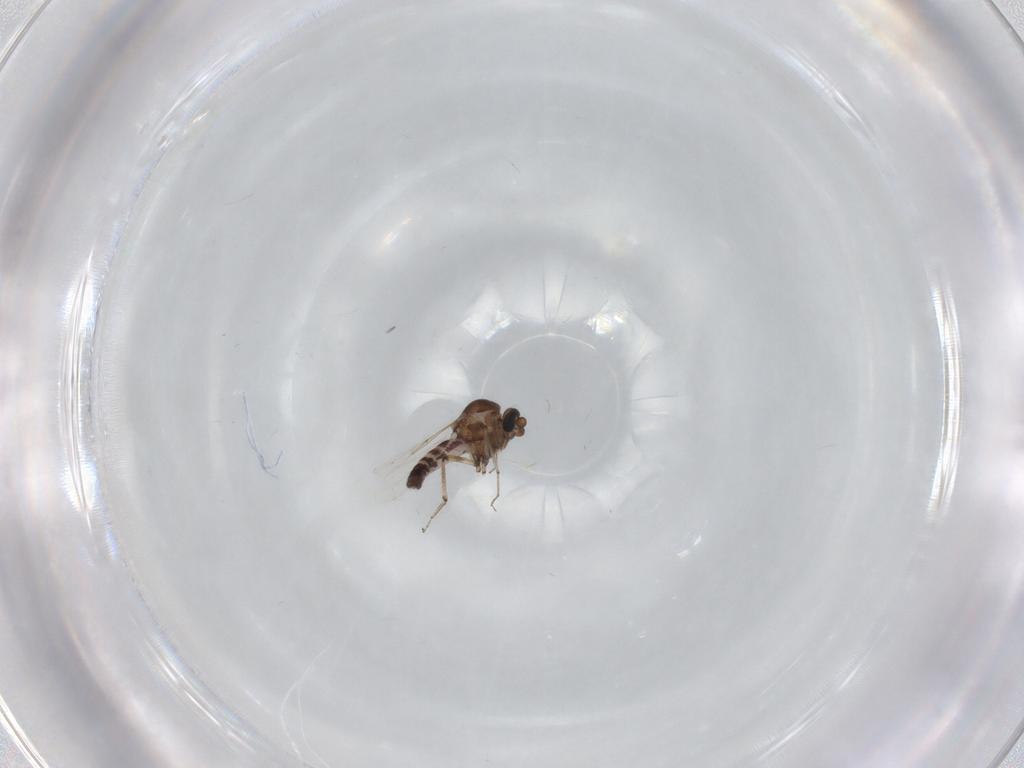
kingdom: Animalia
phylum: Arthropoda
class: Insecta
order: Diptera
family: Ceratopogonidae
